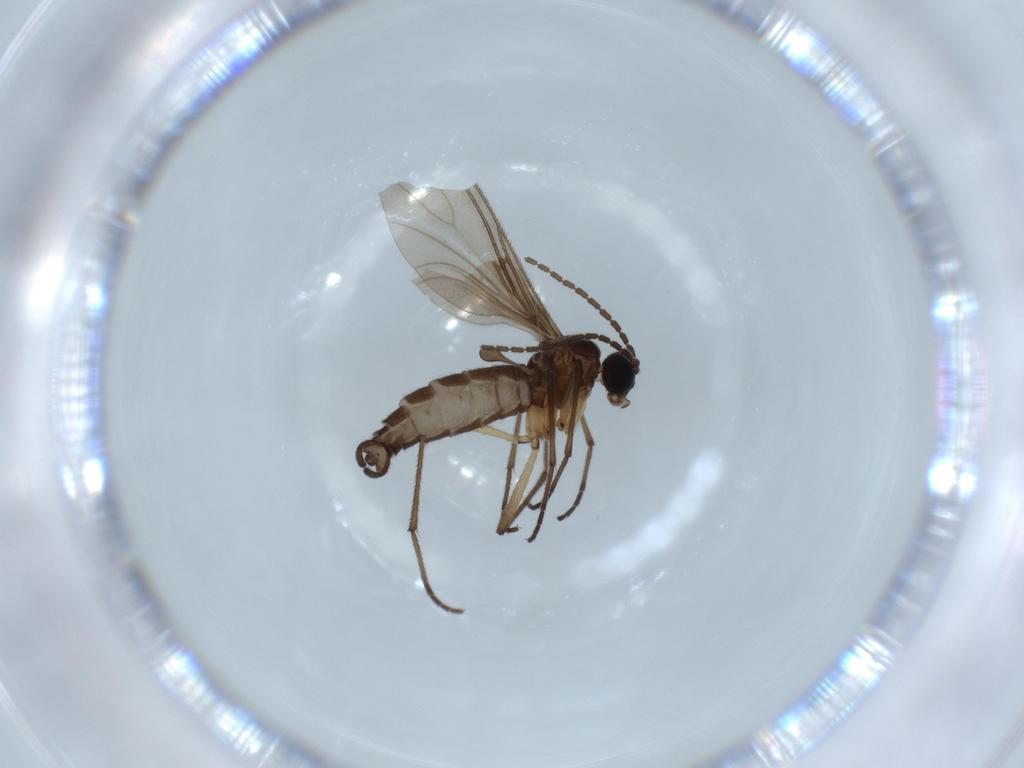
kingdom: Animalia
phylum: Arthropoda
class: Insecta
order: Diptera
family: Sciaridae
